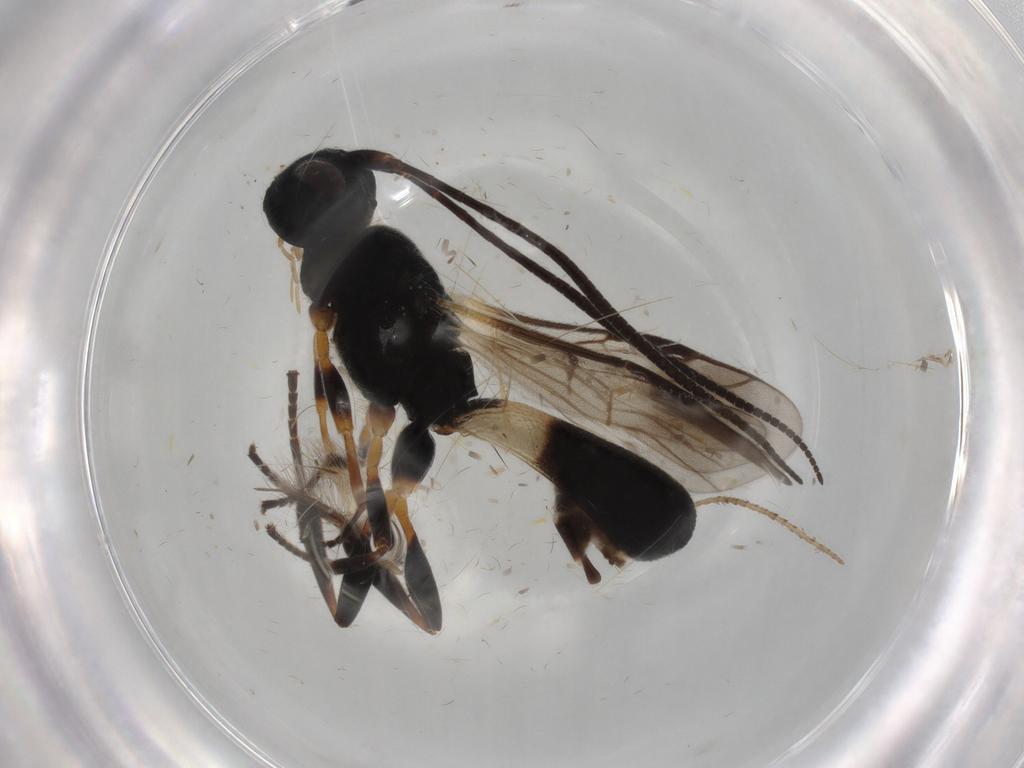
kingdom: Animalia
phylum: Arthropoda
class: Insecta
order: Hymenoptera
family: Braconidae
